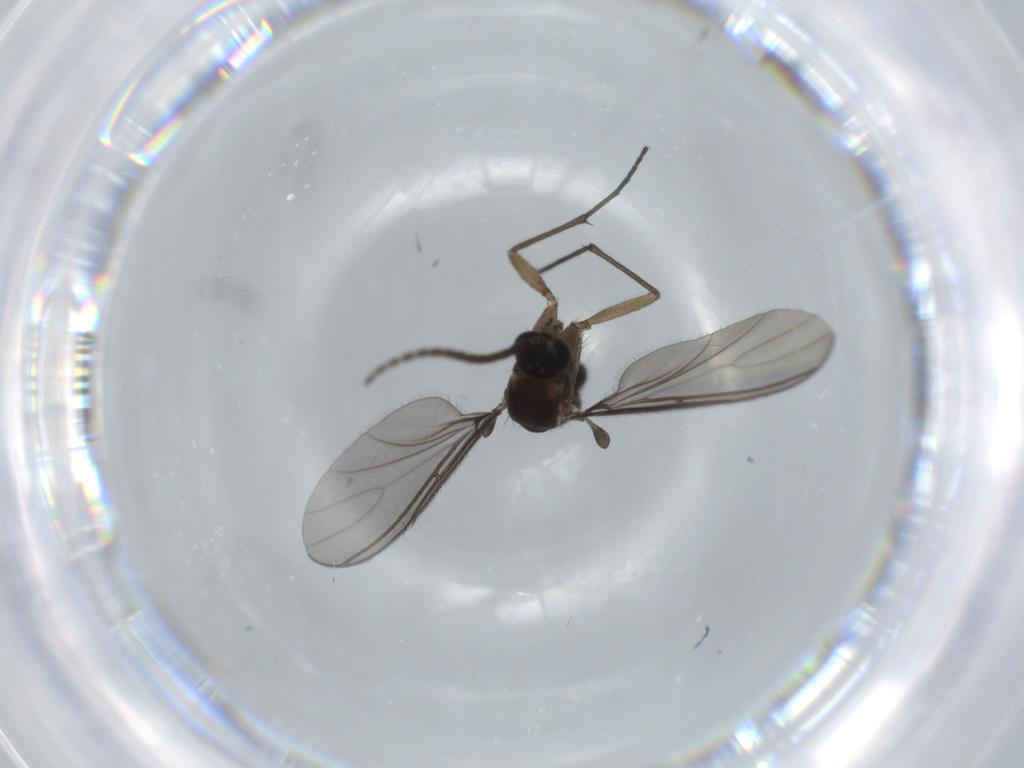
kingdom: Animalia
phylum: Arthropoda
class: Insecta
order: Diptera
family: Sciaridae
